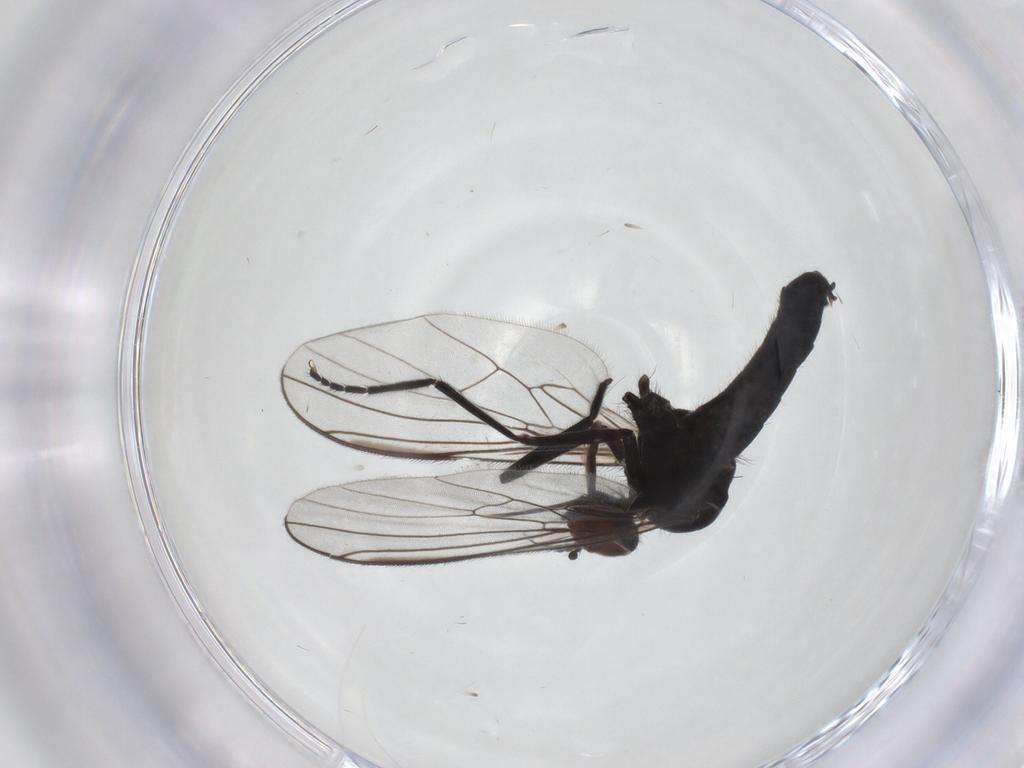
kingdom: Animalia
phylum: Arthropoda
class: Insecta
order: Diptera
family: Empididae
